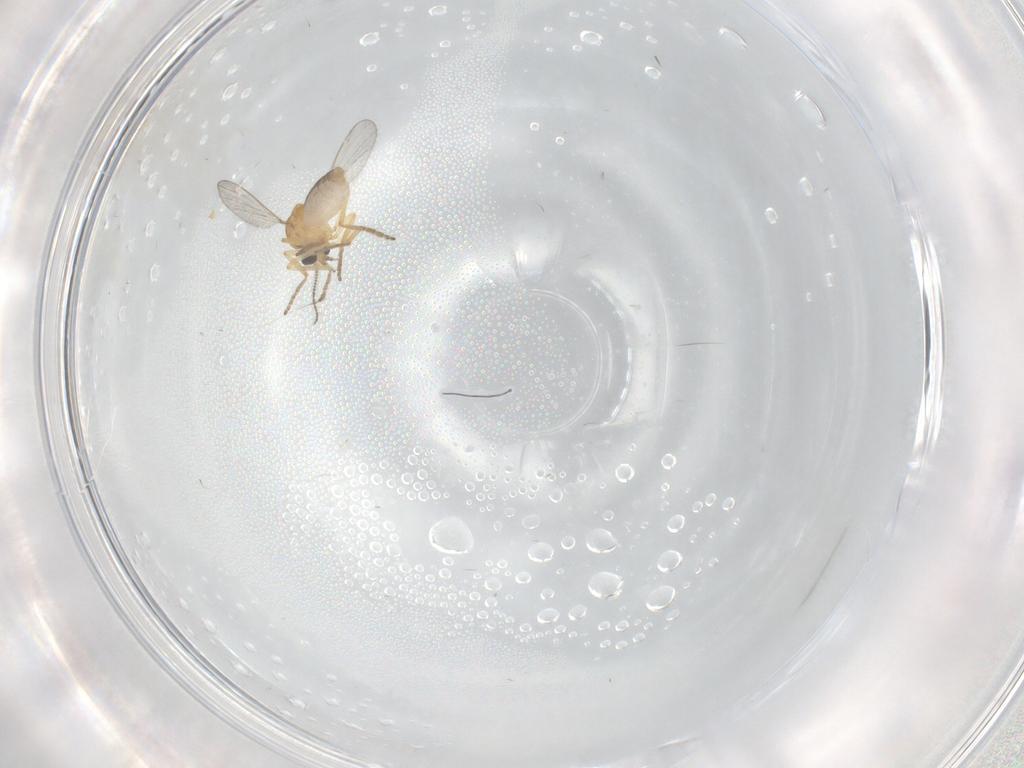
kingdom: Animalia
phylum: Arthropoda
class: Insecta
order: Diptera
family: Ceratopogonidae
